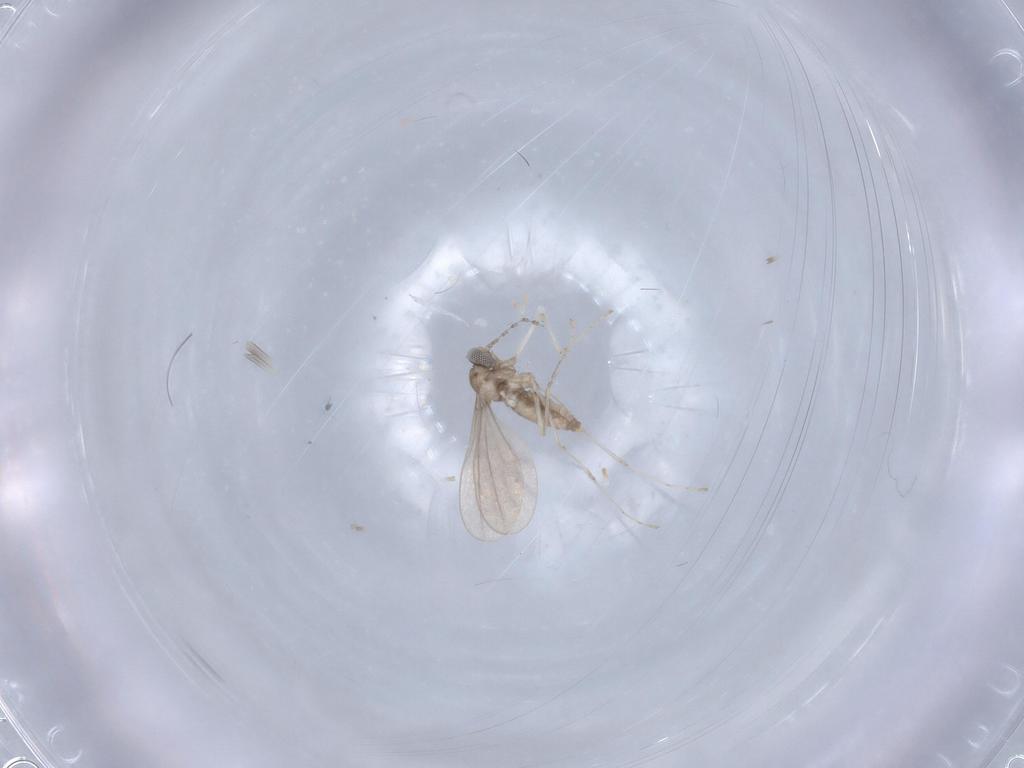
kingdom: Animalia
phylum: Arthropoda
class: Insecta
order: Diptera
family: Cecidomyiidae
